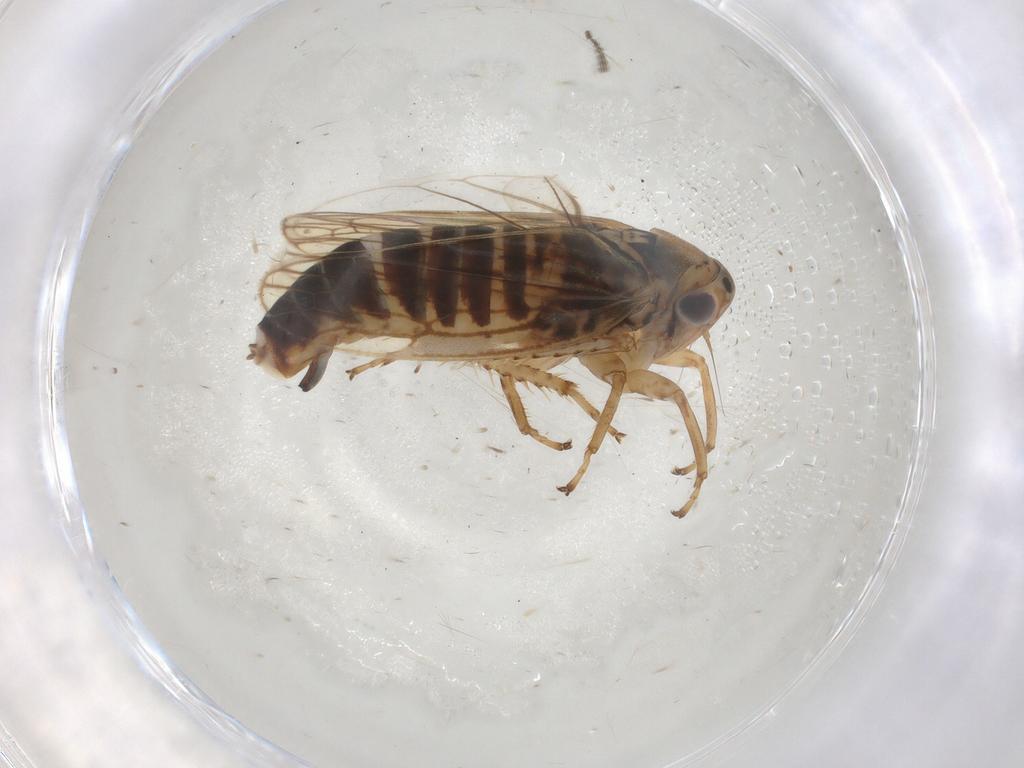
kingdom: Animalia
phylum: Arthropoda
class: Insecta
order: Hemiptera
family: Cicadellidae
